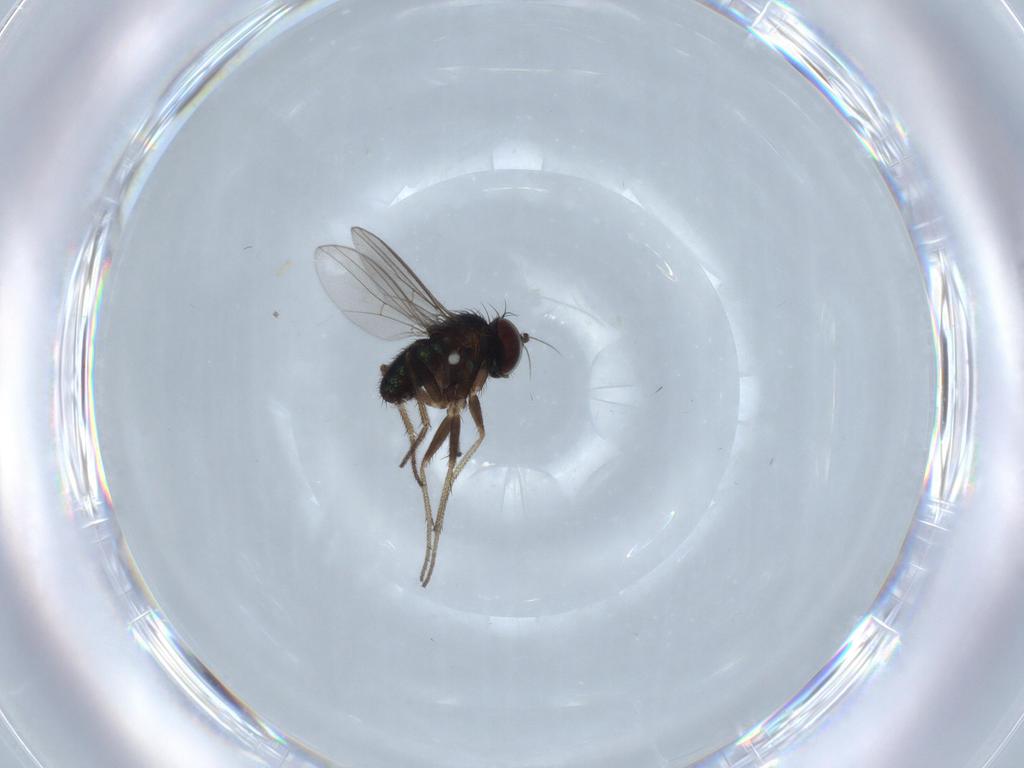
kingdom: Animalia
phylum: Arthropoda
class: Insecta
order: Diptera
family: Dolichopodidae
